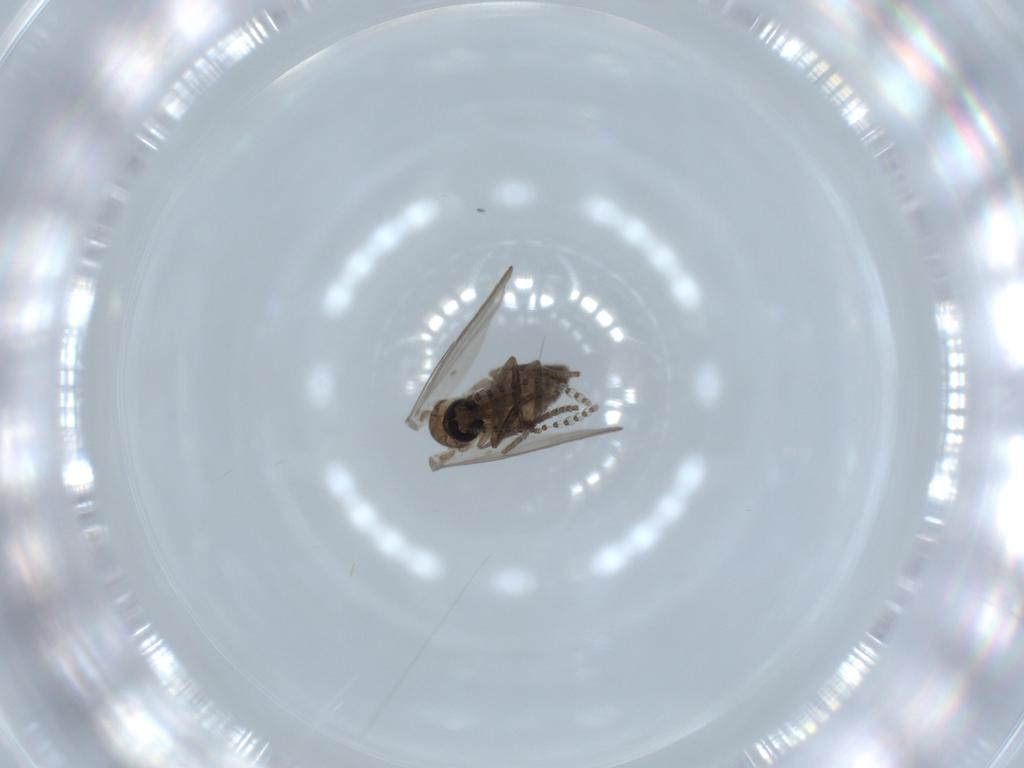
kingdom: Animalia
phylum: Arthropoda
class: Insecta
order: Diptera
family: Psychodidae
